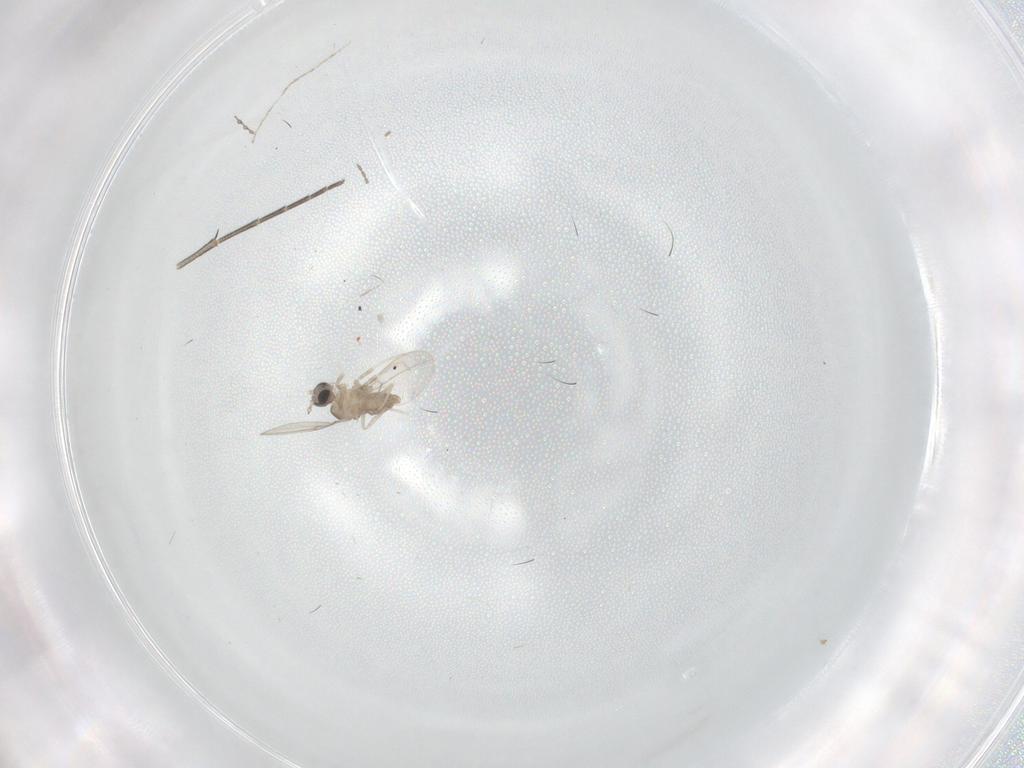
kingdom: Animalia
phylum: Arthropoda
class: Insecta
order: Diptera
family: Cecidomyiidae
